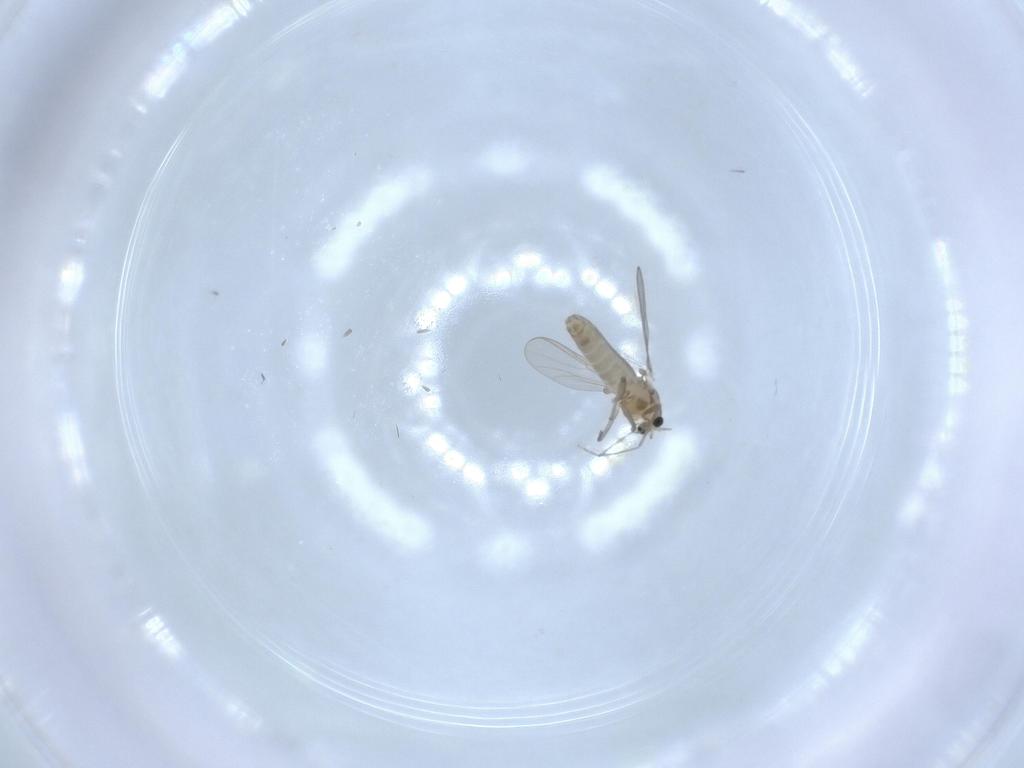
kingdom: Animalia
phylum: Arthropoda
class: Insecta
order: Diptera
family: Chironomidae
